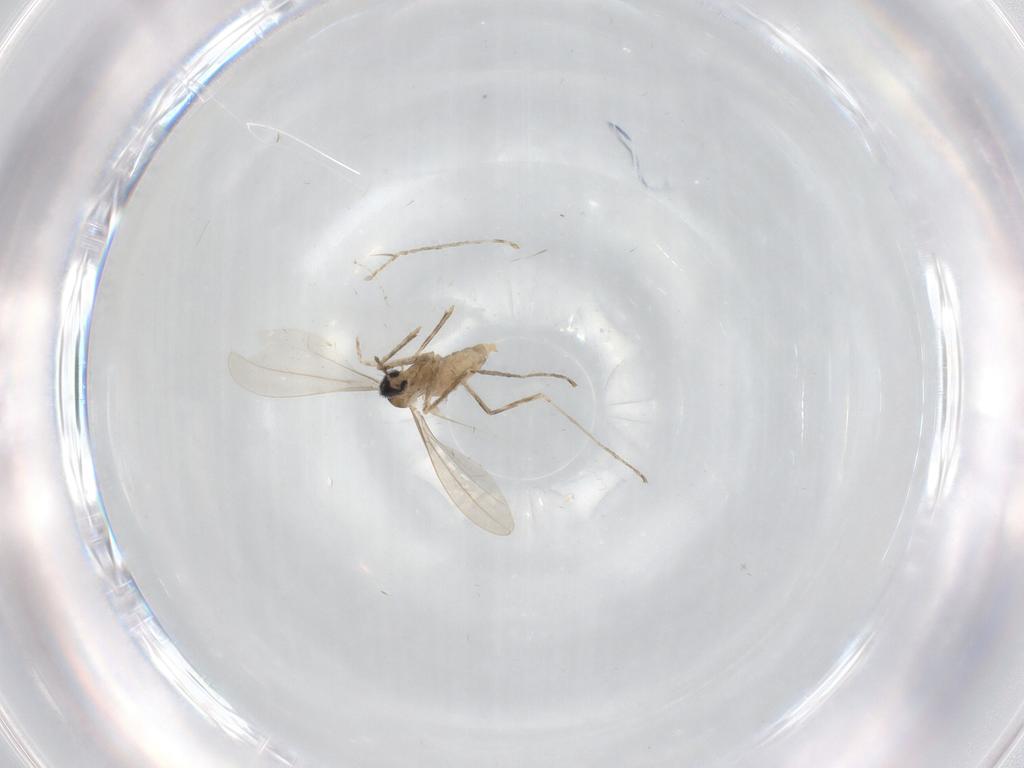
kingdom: Animalia
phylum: Arthropoda
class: Insecta
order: Diptera
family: Cecidomyiidae
